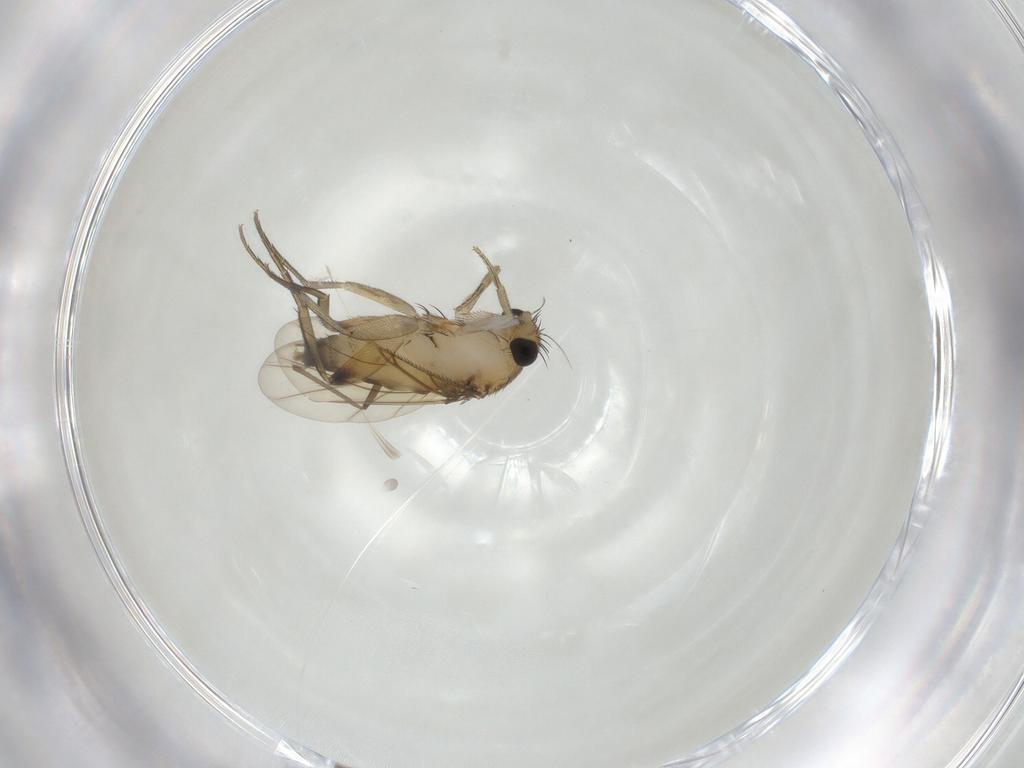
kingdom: Animalia
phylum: Arthropoda
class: Insecta
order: Diptera
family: Phoridae
